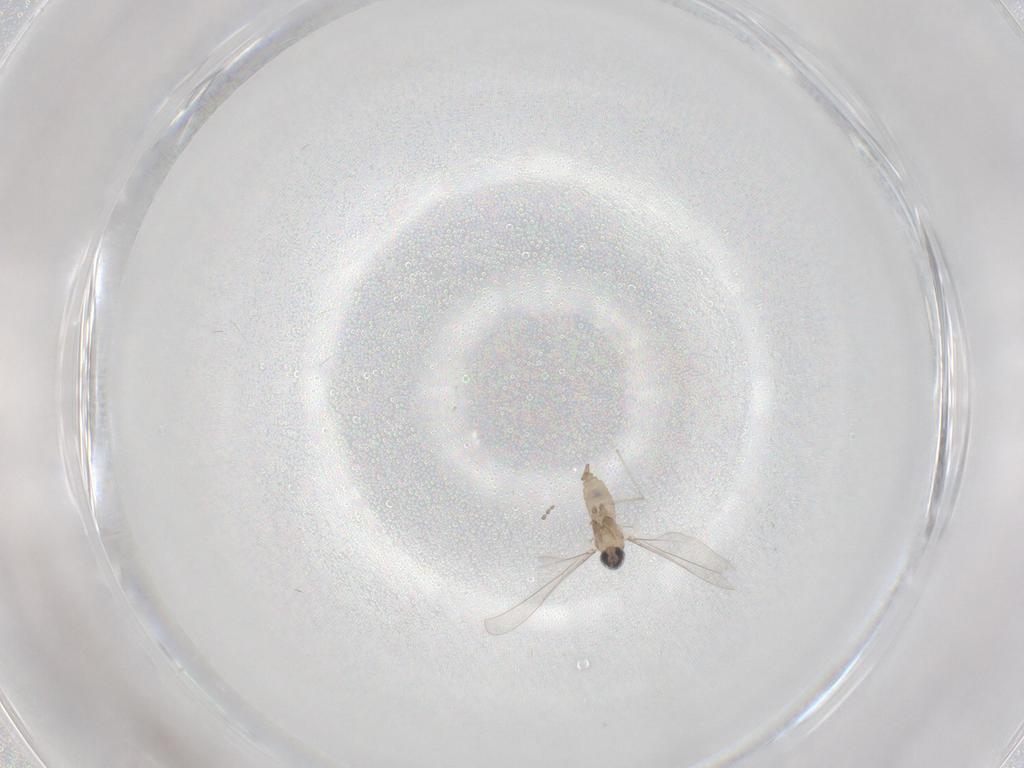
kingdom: Animalia
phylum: Arthropoda
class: Insecta
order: Diptera
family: Cecidomyiidae
